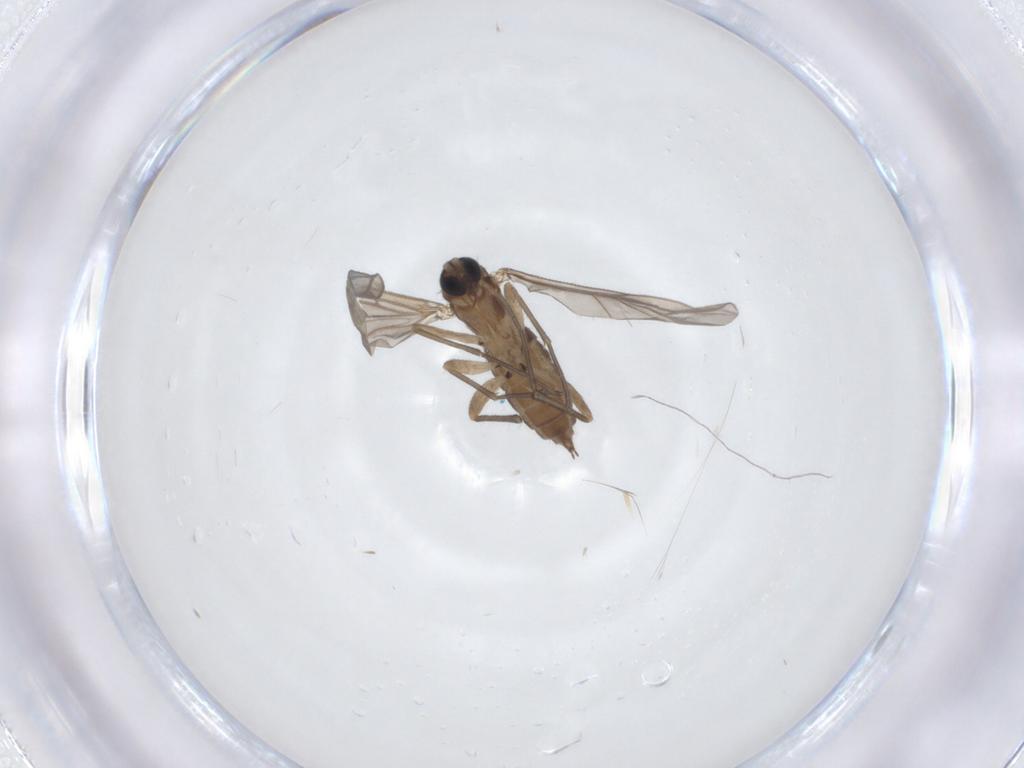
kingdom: Animalia
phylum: Arthropoda
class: Insecta
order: Diptera
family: Sciaridae
